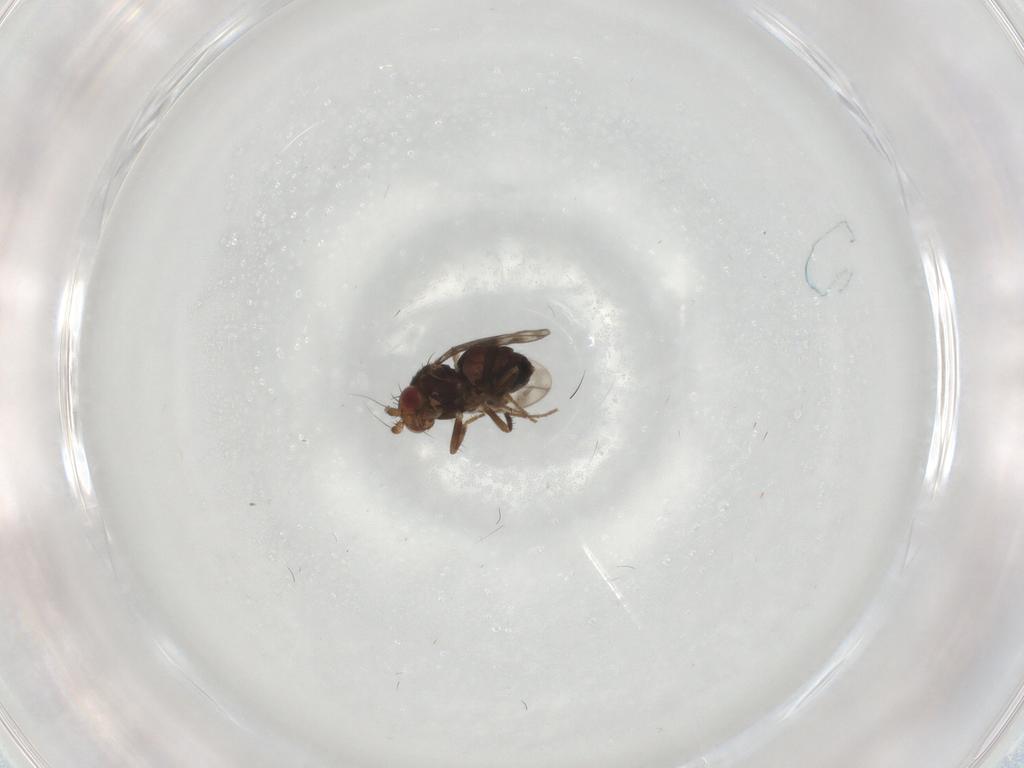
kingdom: Animalia
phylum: Arthropoda
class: Insecta
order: Diptera
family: Sphaeroceridae
